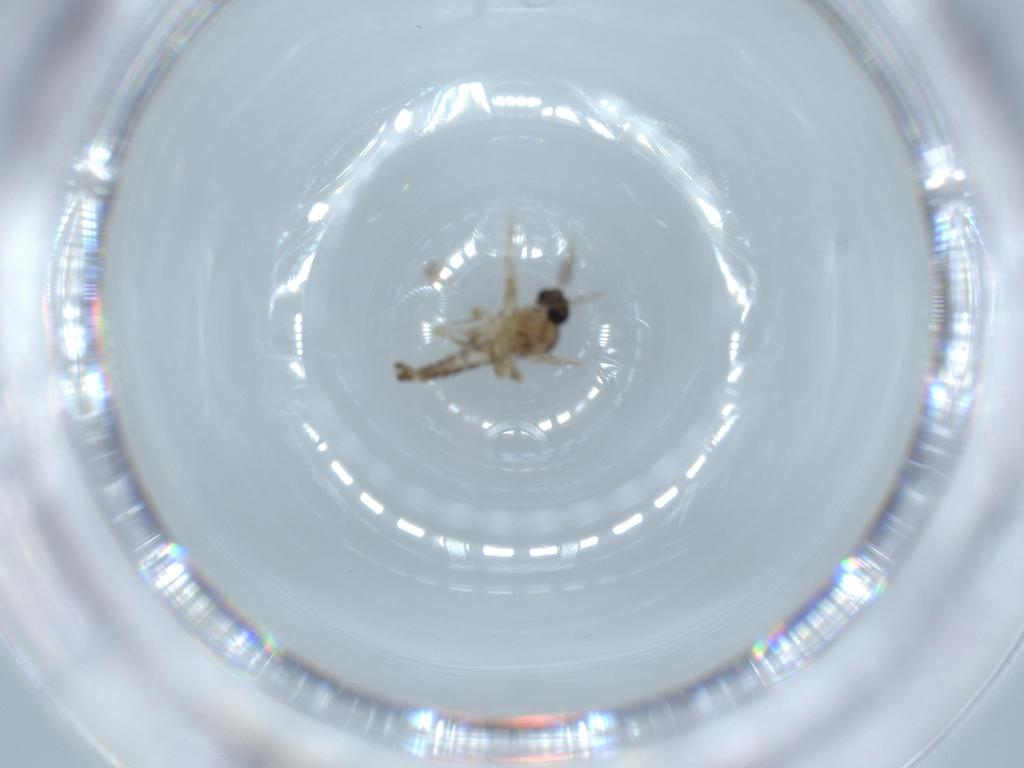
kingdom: Animalia
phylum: Arthropoda
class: Insecta
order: Diptera
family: Ceratopogonidae
